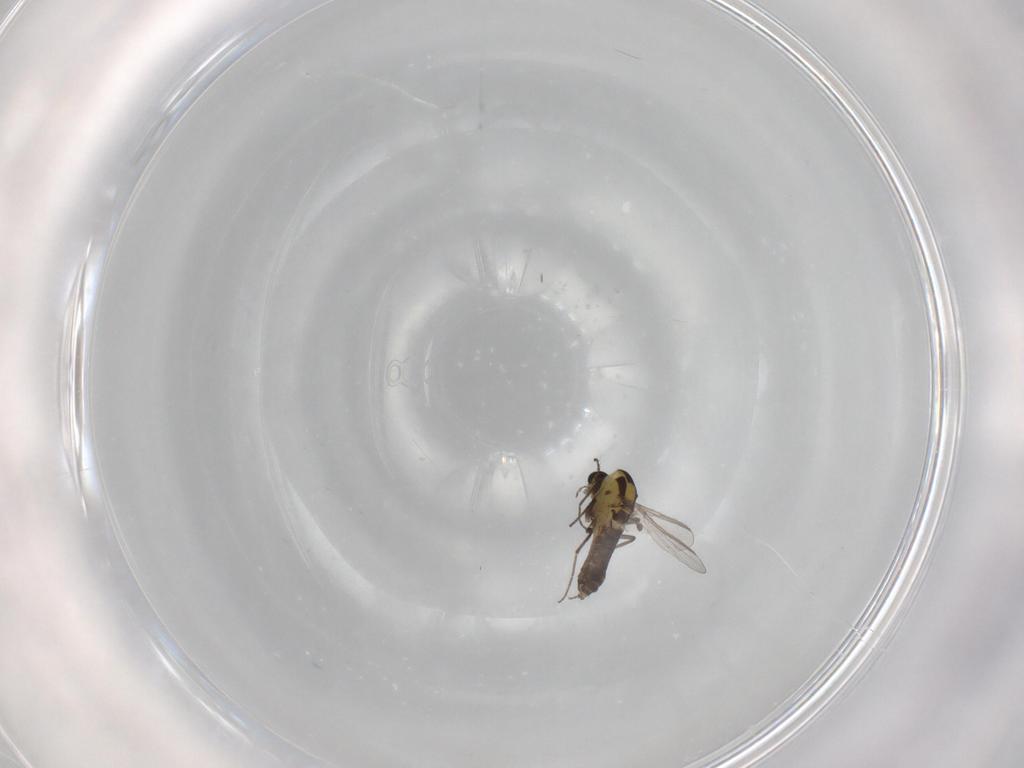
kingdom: Animalia
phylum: Arthropoda
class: Insecta
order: Diptera
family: Chironomidae
